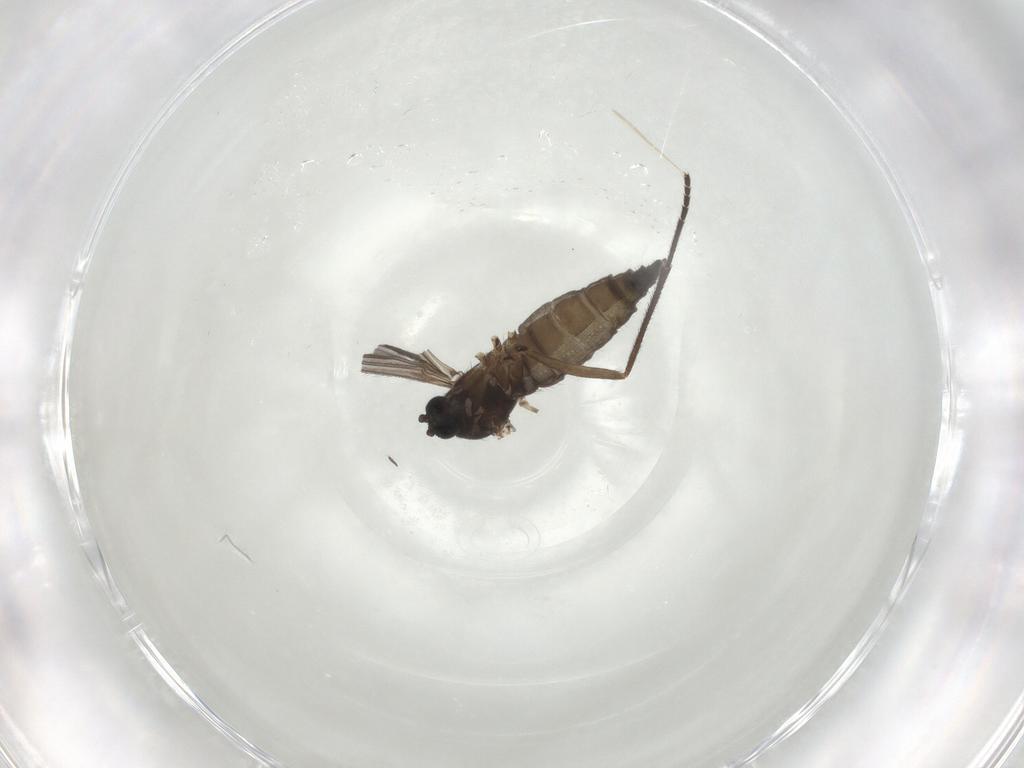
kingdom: Animalia
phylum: Arthropoda
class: Insecta
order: Diptera
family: Sciaridae
